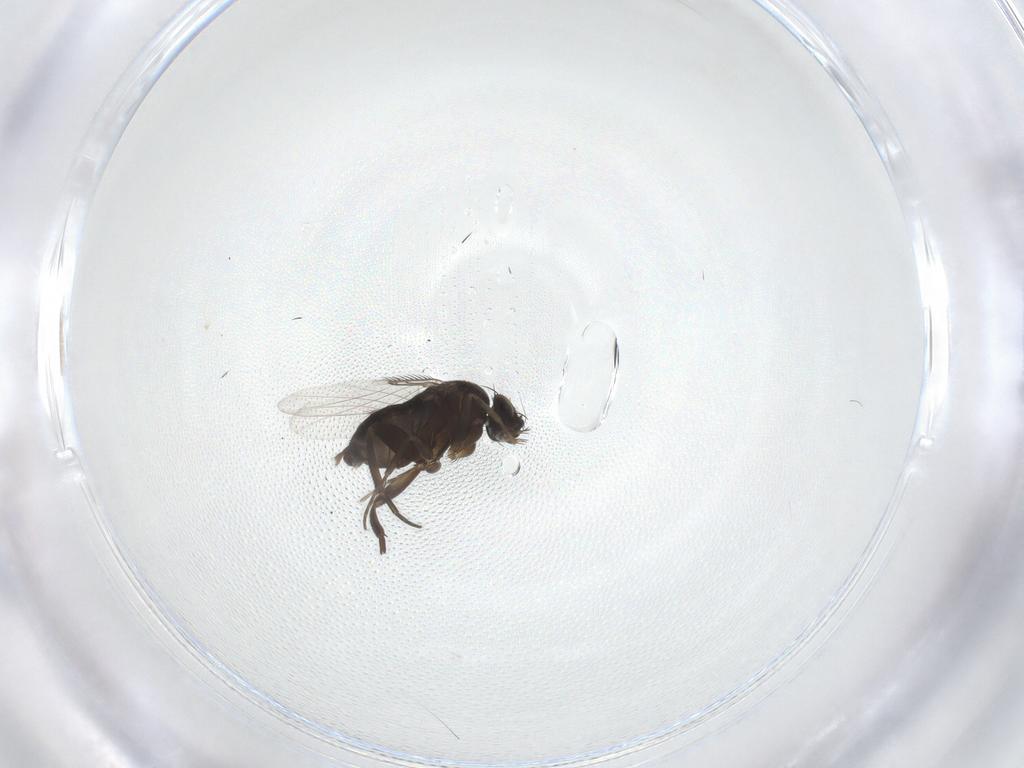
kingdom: Animalia
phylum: Arthropoda
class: Insecta
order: Diptera
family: Phoridae
